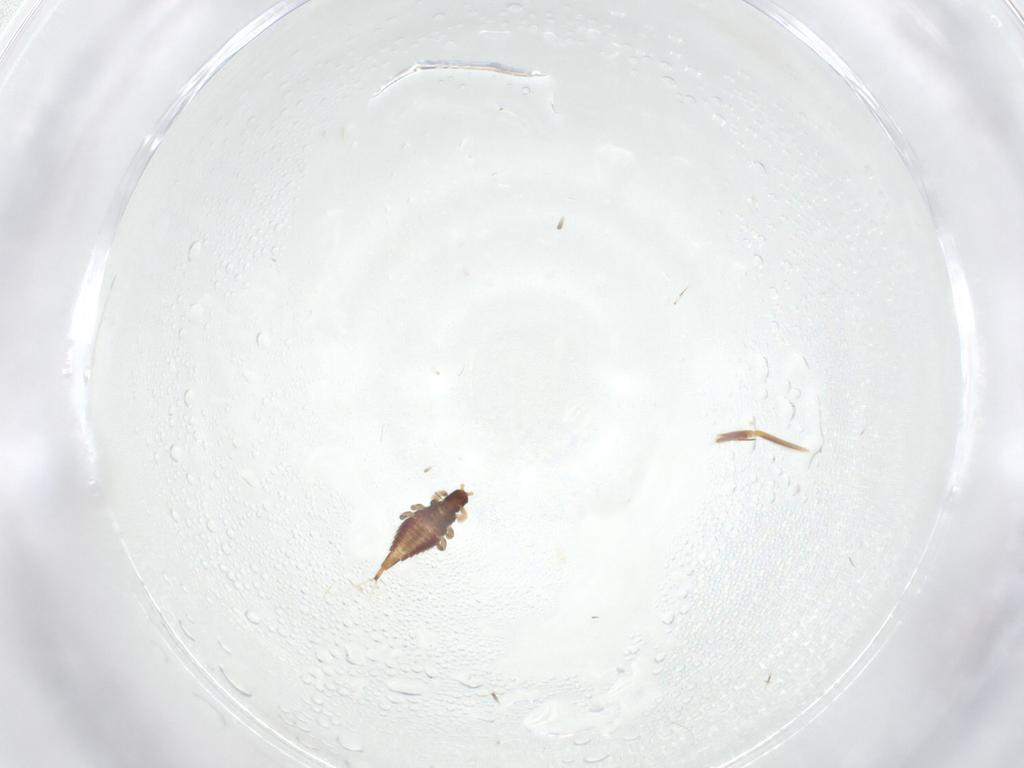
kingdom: Animalia
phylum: Arthropoda
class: Insecta
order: Thysanoptera
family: Phlaeothripidae
